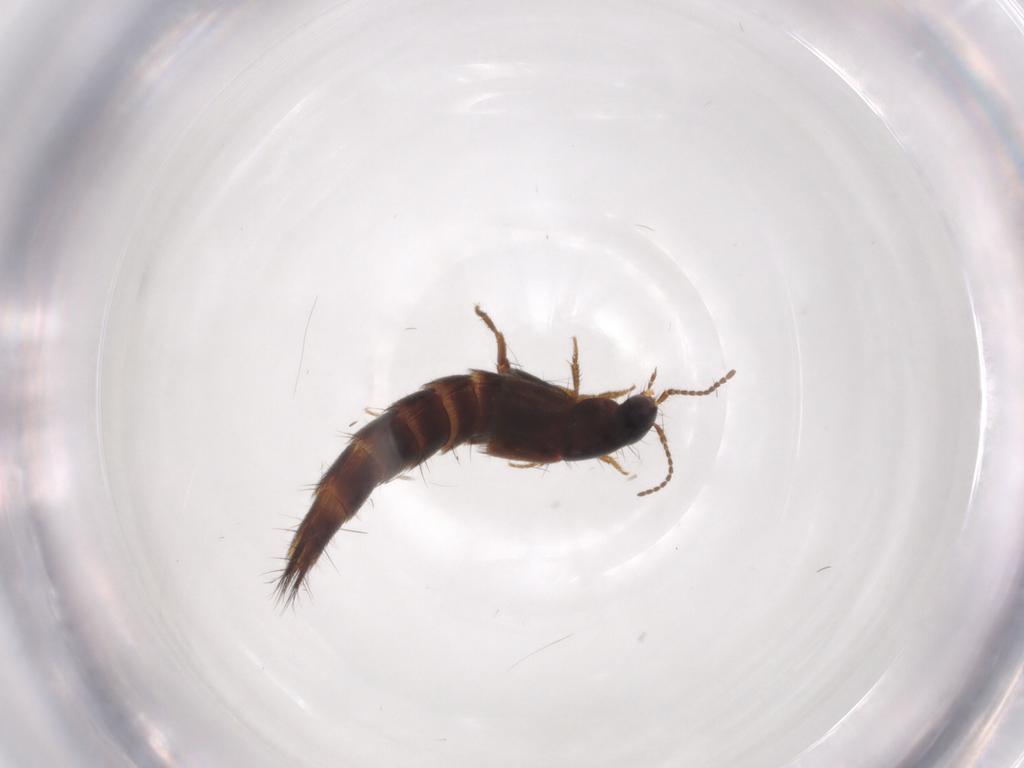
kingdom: Animalia
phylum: Arthropoda
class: Insecta
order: Coleoptera
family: Staphylinidae
